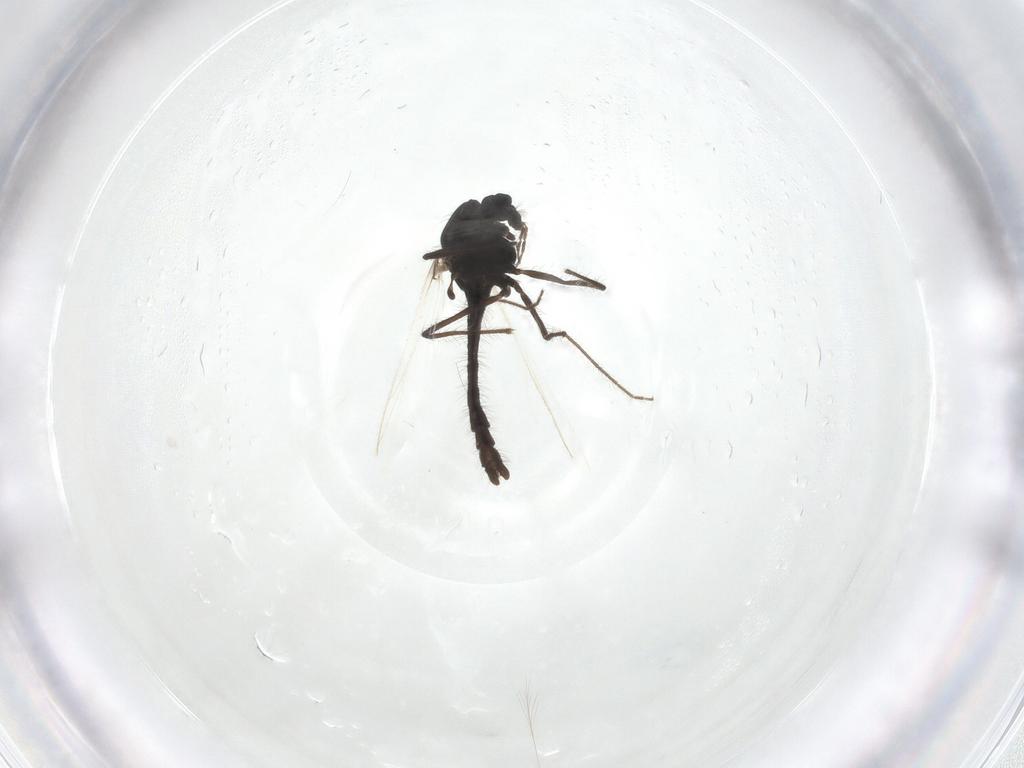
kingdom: Animalia
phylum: Arthropoda
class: Insecta
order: Diptera
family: Chironomidae
